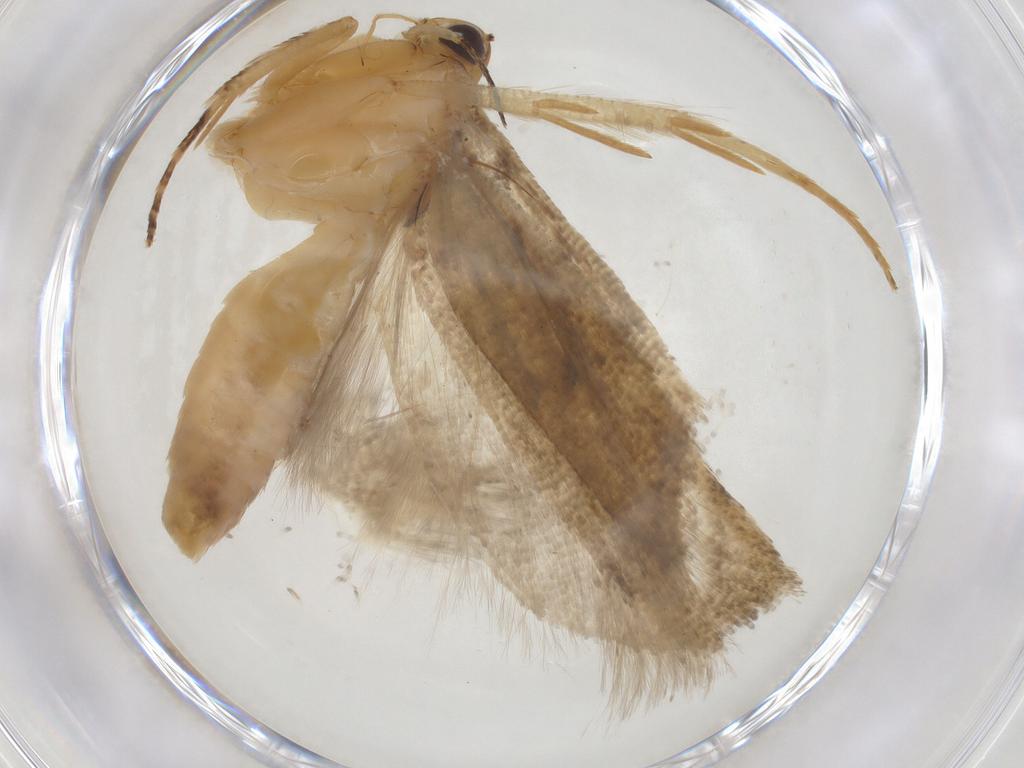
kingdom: Animalia
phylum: Arthropoda
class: Insecta
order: Lepidoptera
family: Gelechiidae
